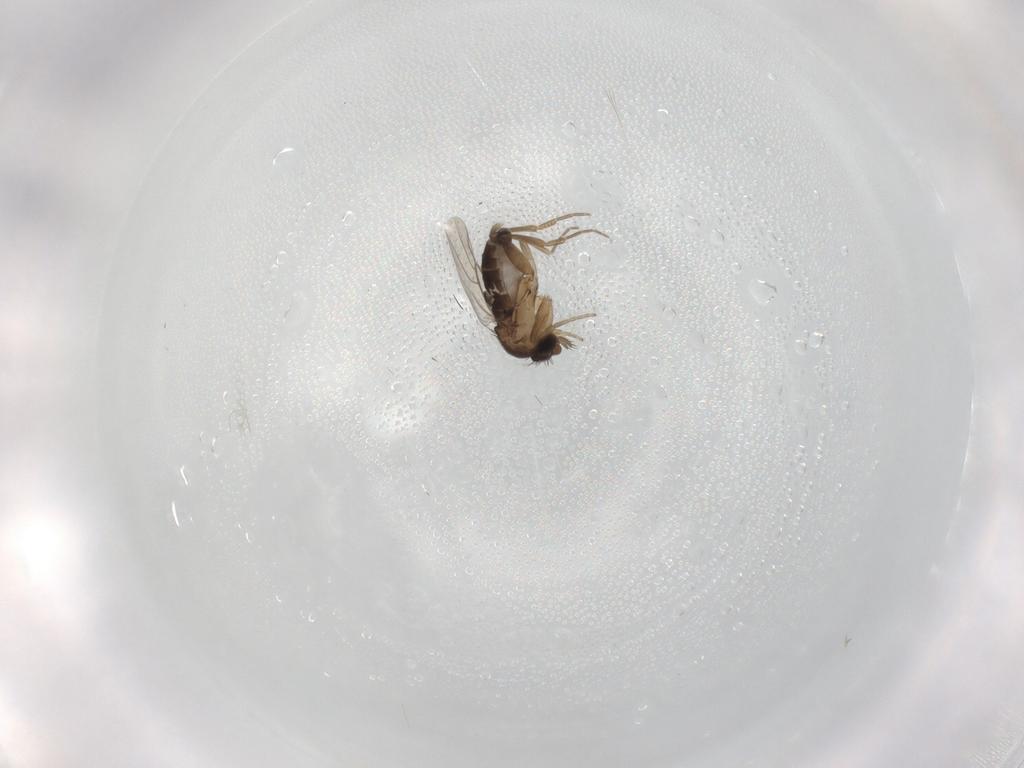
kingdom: Animalia
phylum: Arthropoda
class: Insecta
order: Diptera
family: Phoridae
